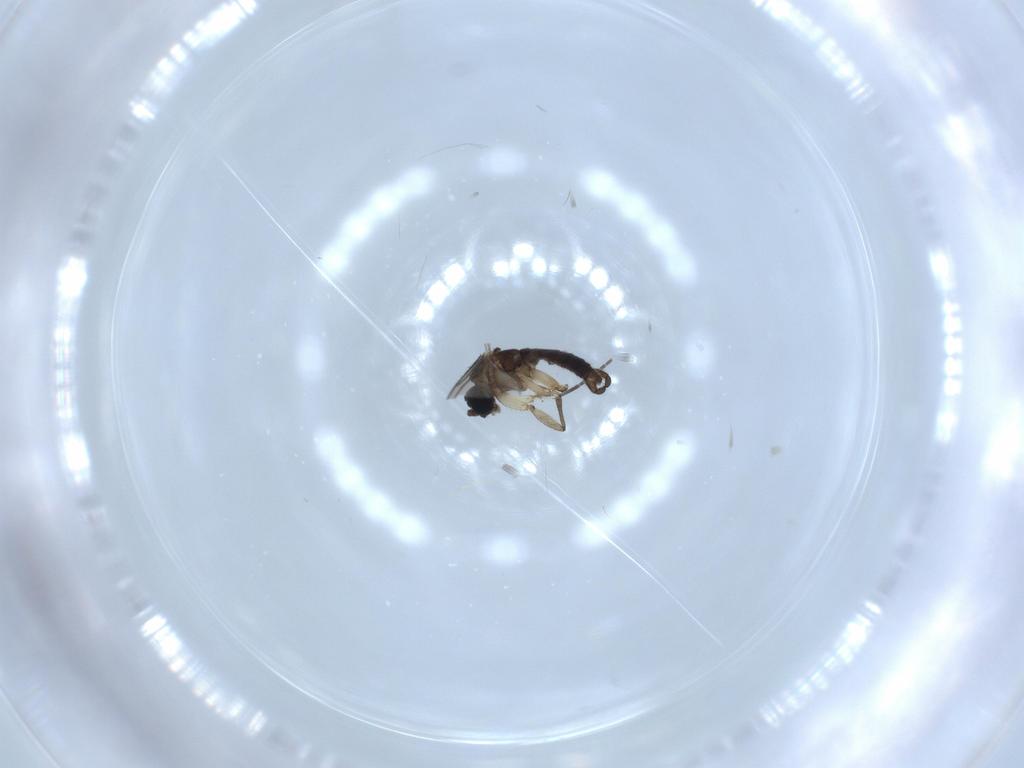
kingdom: Animalia
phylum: Arthropoda
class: Insecta
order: Diptera
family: Sciaridae
